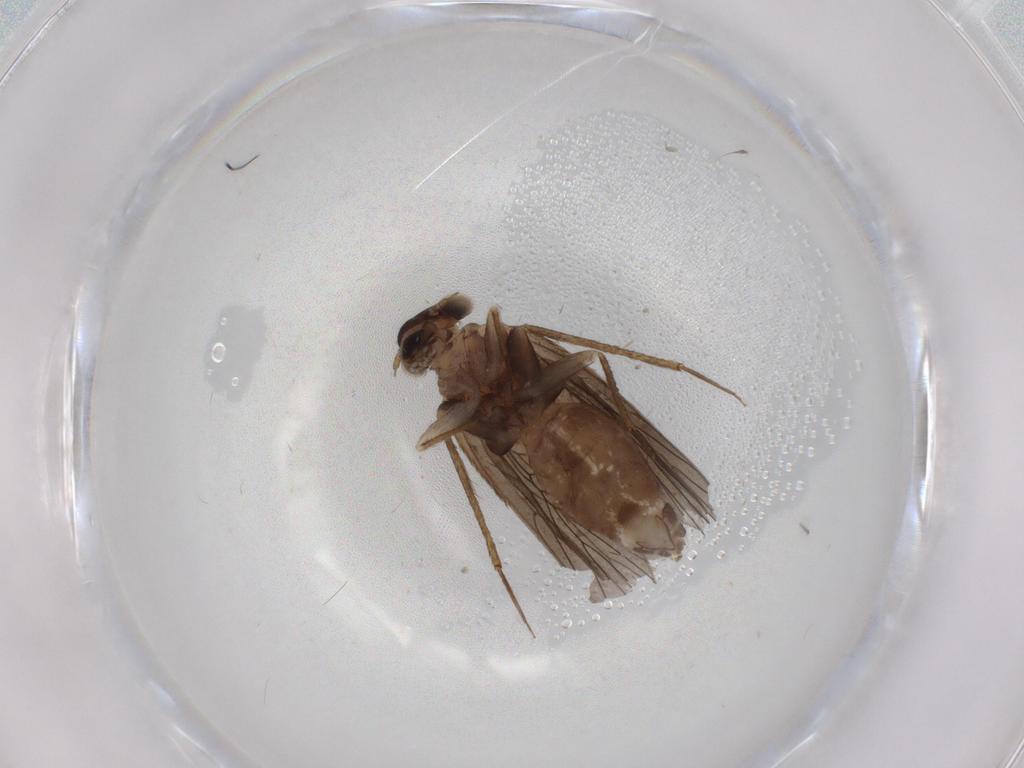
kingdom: Animalia
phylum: Arthropoda
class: Insecta
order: Psocodea
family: Lepidopsocidae
